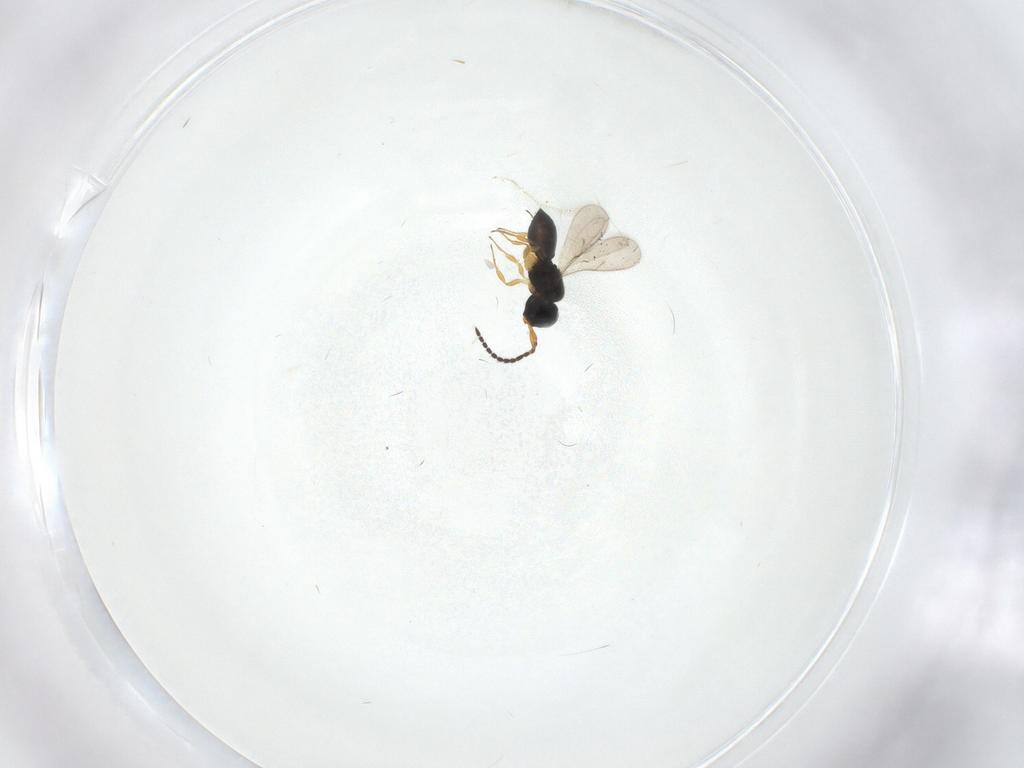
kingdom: Animalia
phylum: Arthropoda
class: Insecta
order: Hymenoptera
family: Scelionidae
